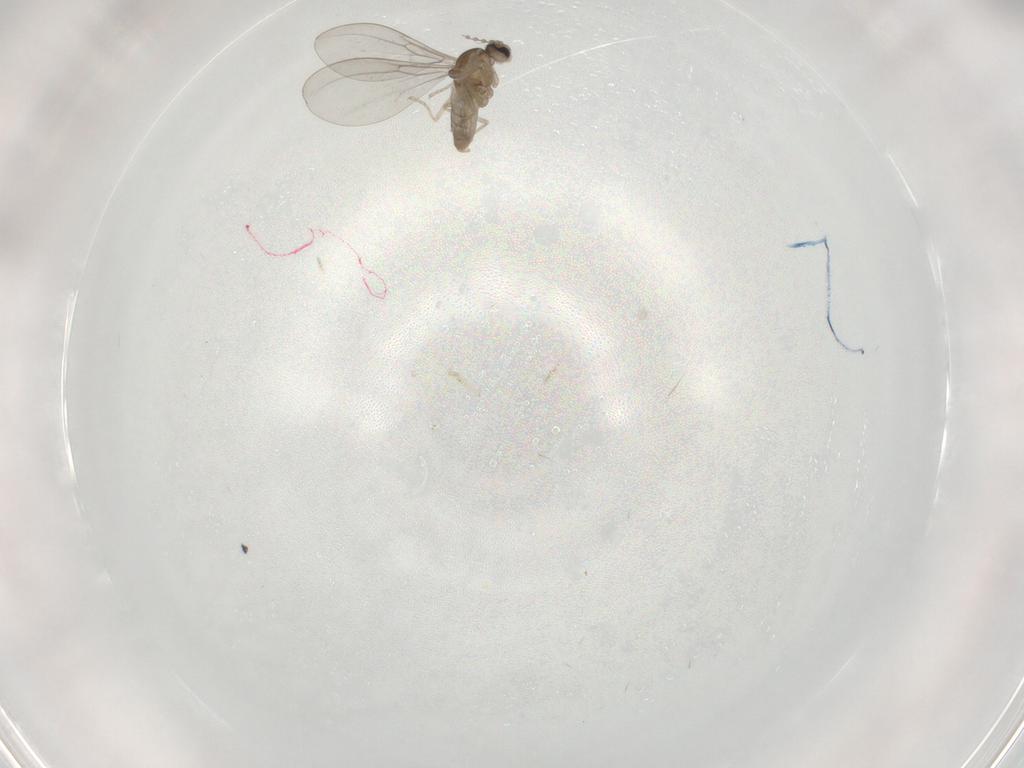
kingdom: Animalia
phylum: Arthropoda
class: Insecta
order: Diptera
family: Cecidomyiidae
